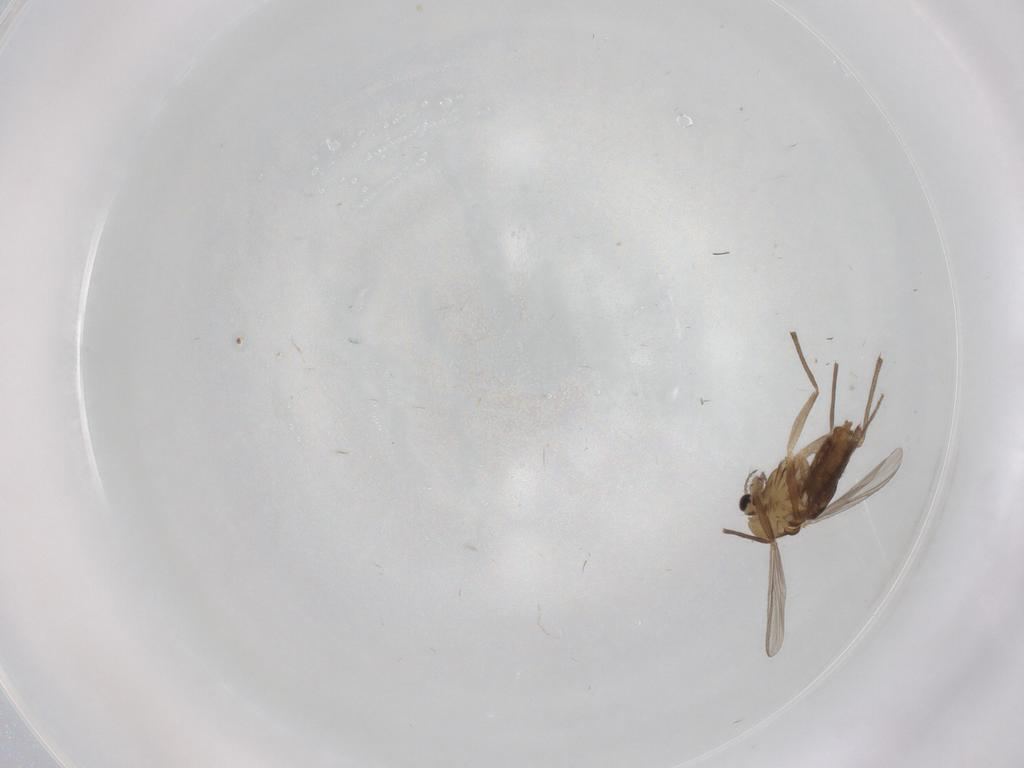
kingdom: Animalia
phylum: Arthropoda
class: Insecta
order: Diptera
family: Chironomidae
